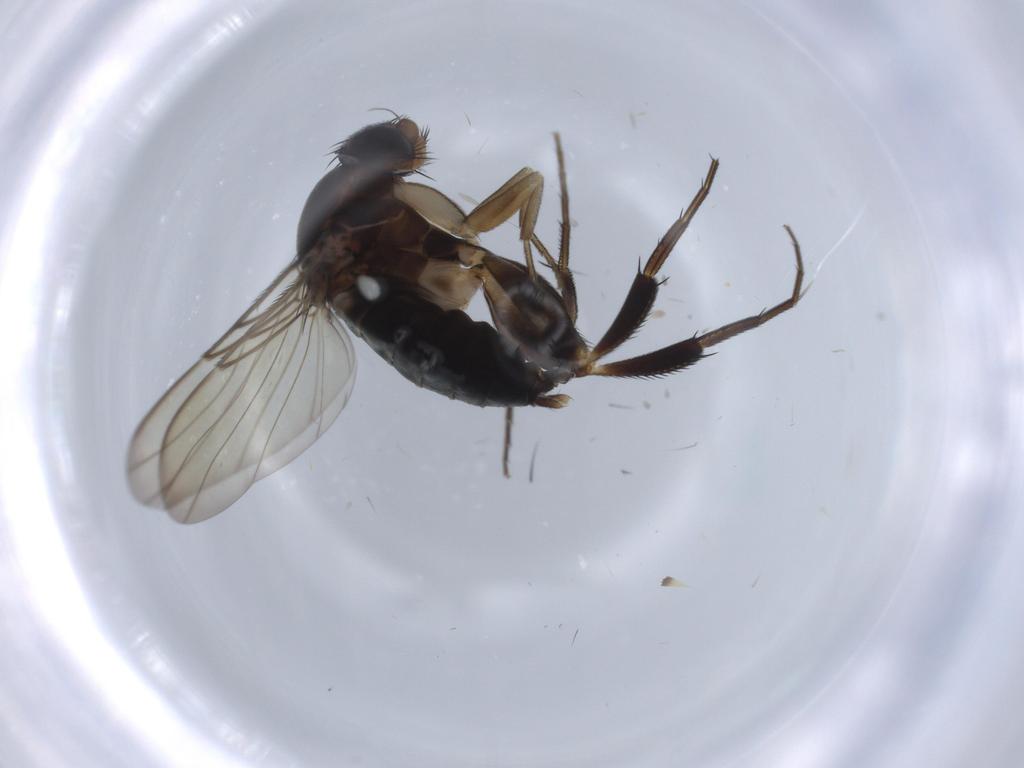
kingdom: Animalia
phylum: Arthropoda
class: Insecta
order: Diptera
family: Phoridae
